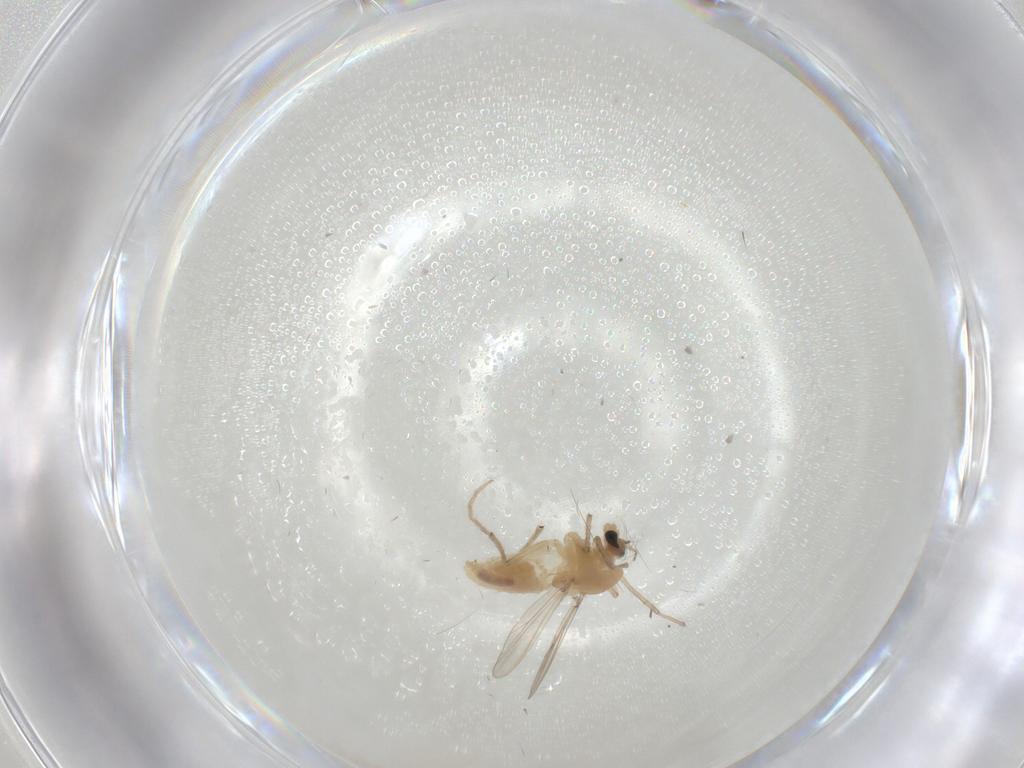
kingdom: Animalia
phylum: Arthropoda
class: Insecta
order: Diptera
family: Chironomidae
